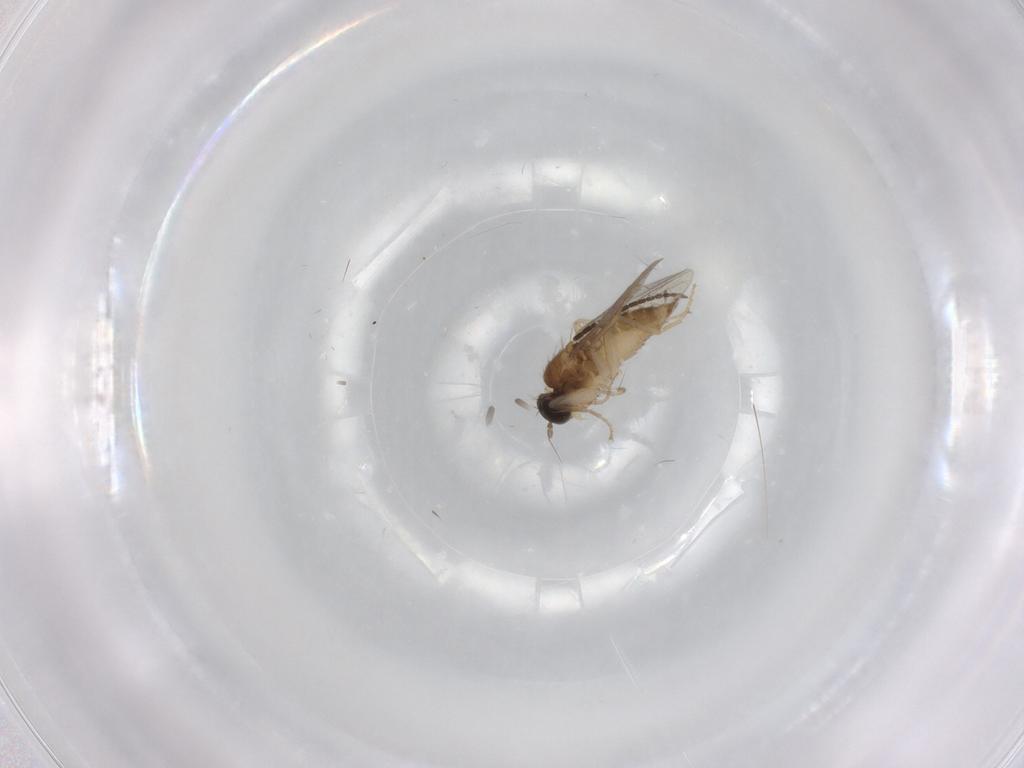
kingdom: Animalia
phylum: Arthropoda
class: Insecta
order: Diptera
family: Hybotidae
